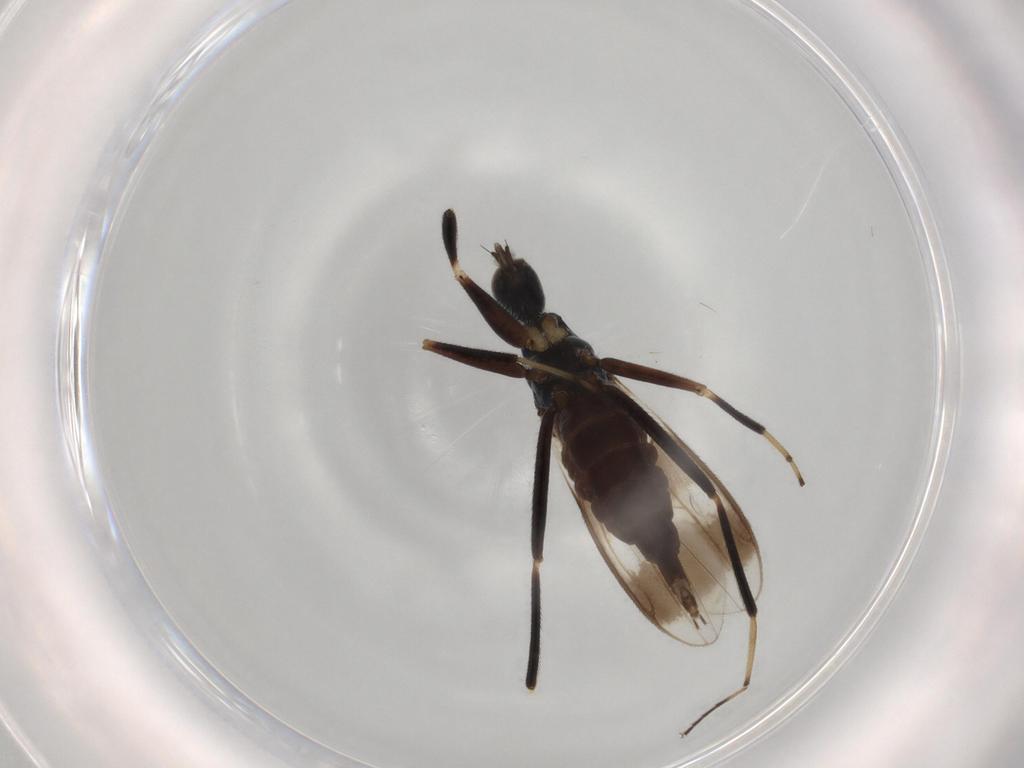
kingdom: Animalia
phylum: Arthropoda
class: Insecta
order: Diptera
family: Hybotidae
